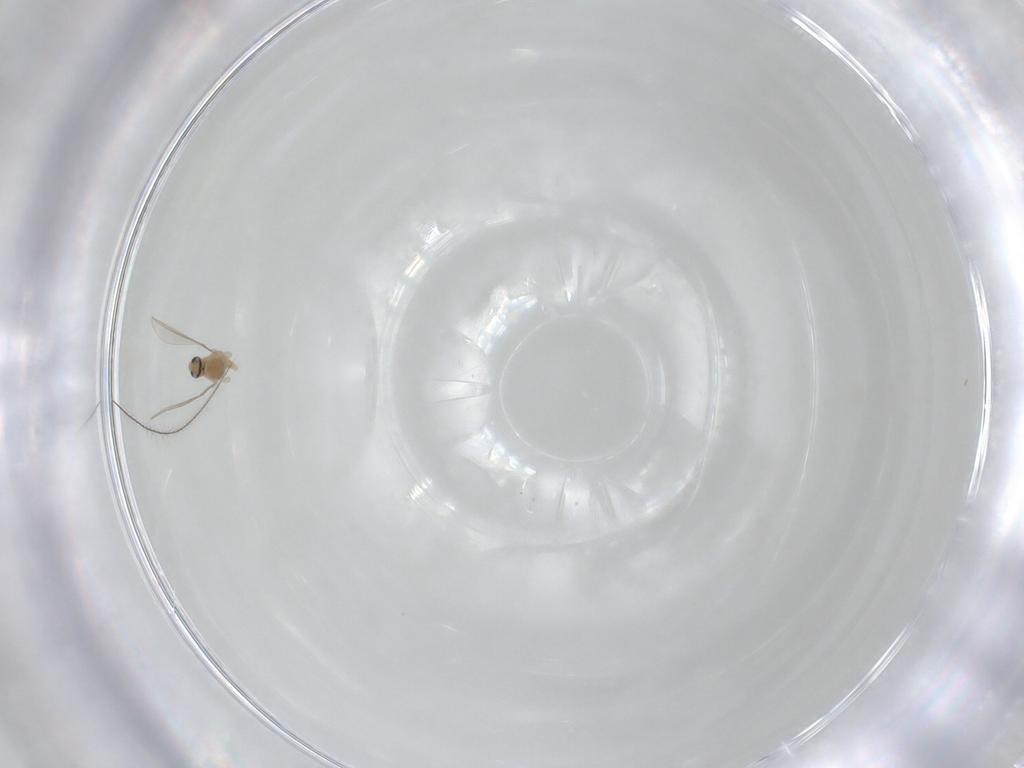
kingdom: Animalia
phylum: Arthropoda
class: Insecta
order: Diptera
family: Cecidomyiidae
